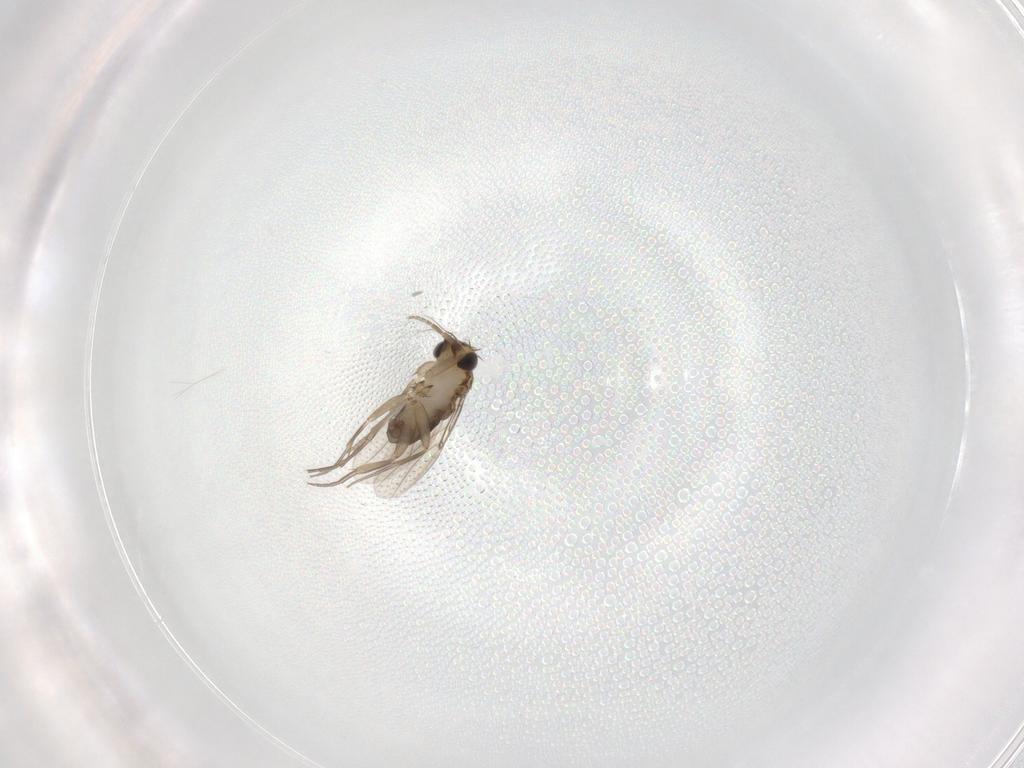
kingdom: Animalia
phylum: Arthropoda
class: Insecta
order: Diptera
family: Phoridae
